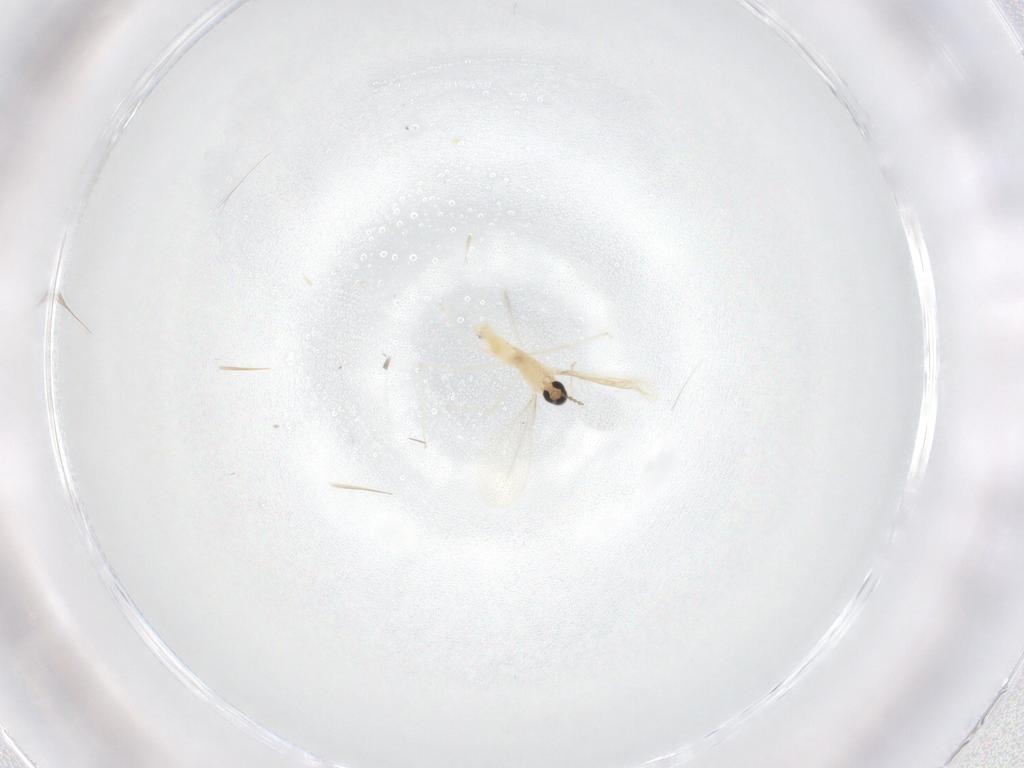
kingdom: Animalia
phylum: Arthropoda
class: Insecta
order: Diptera
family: Cecidomyiidae
